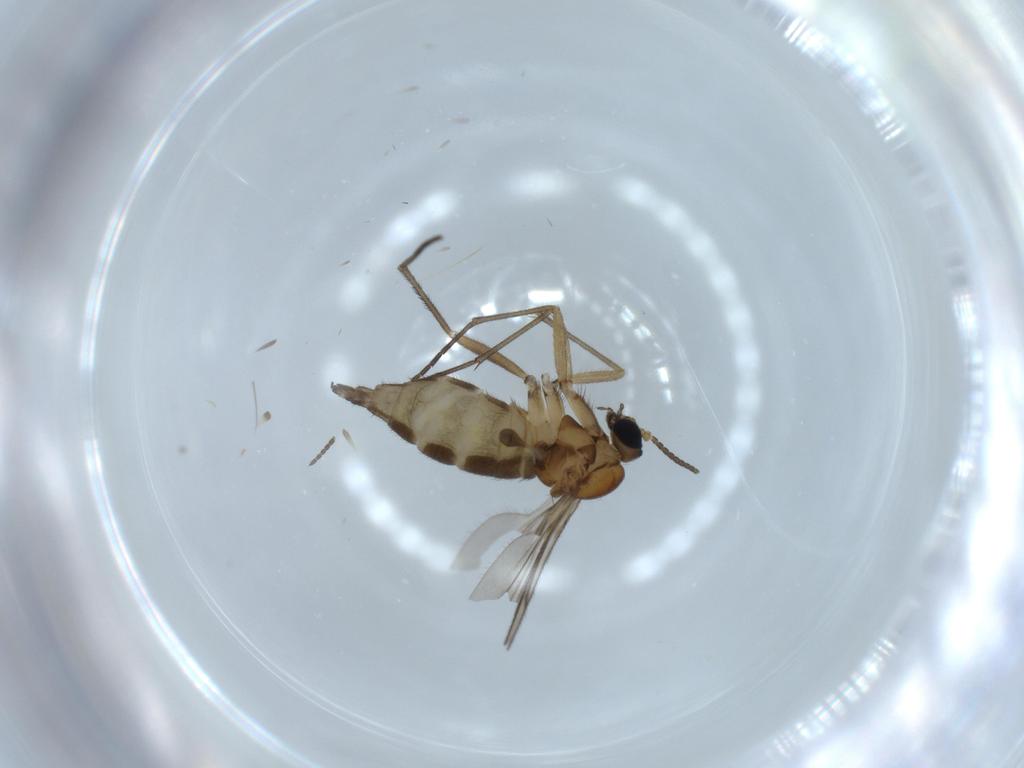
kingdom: Animalia
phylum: Arthropoda
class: Insecta
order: Diptera
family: Sciaridae
